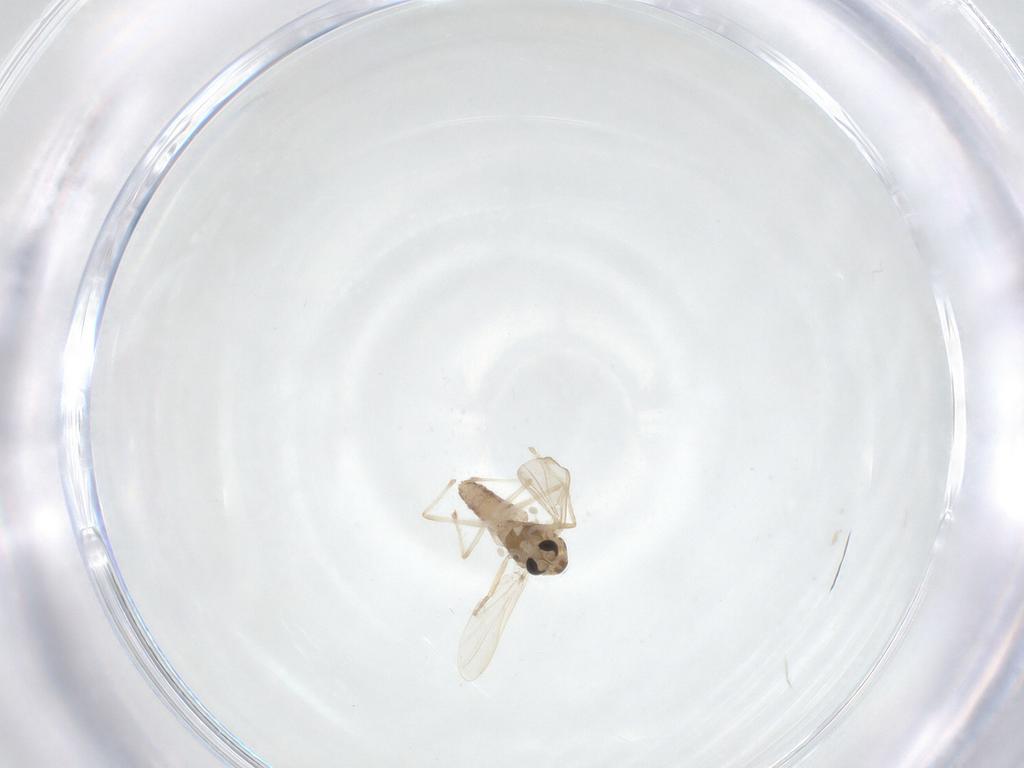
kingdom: Animalia
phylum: Arthropoda
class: Insecta
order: Diptera
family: Chironomidae
